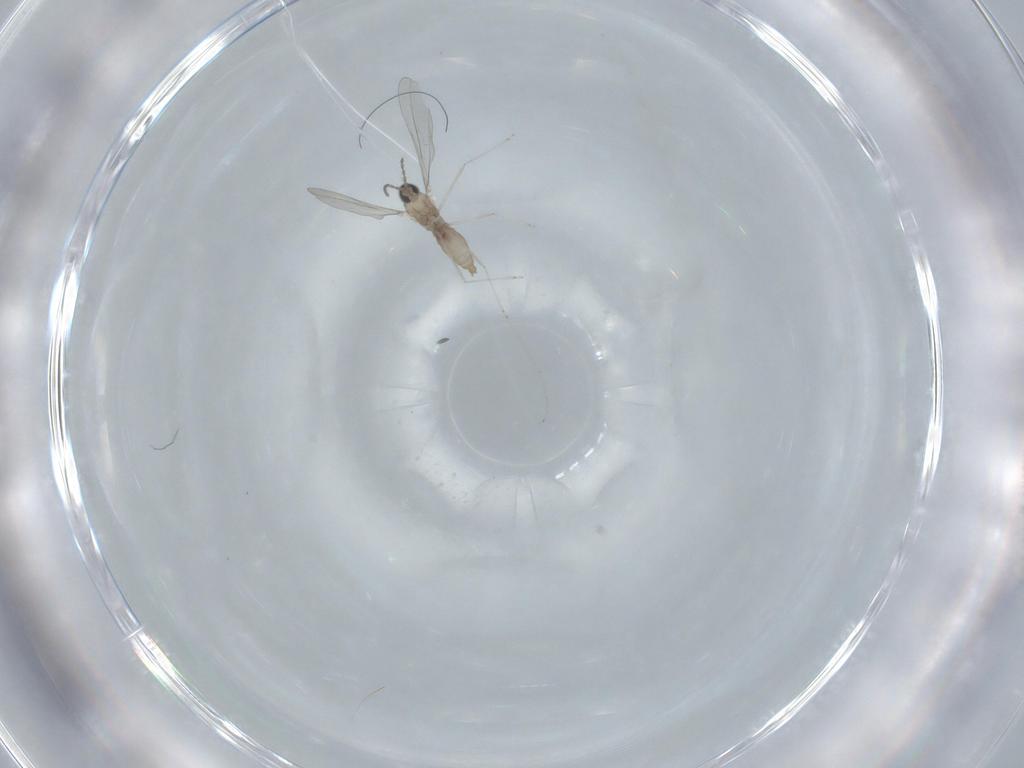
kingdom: Animalia
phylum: Arthropoda
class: Insecta
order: Diptera
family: Cecidomyiidae
